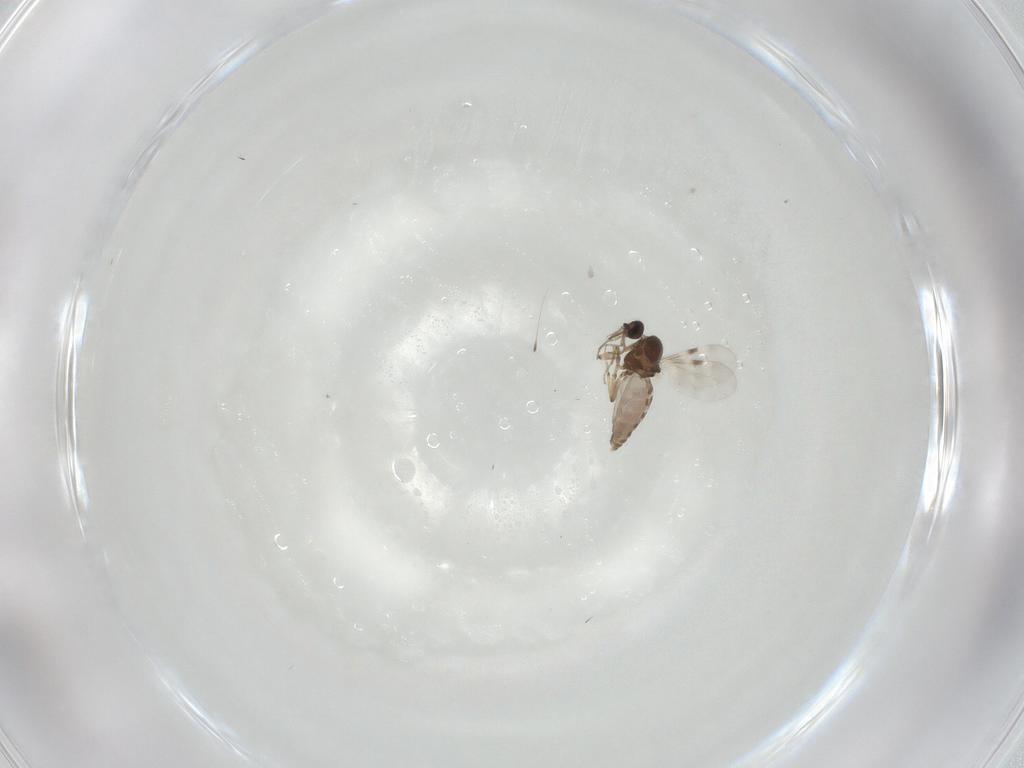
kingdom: Animalia
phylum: Arthropoda
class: Insecta
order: Diptera
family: Sciaridae
